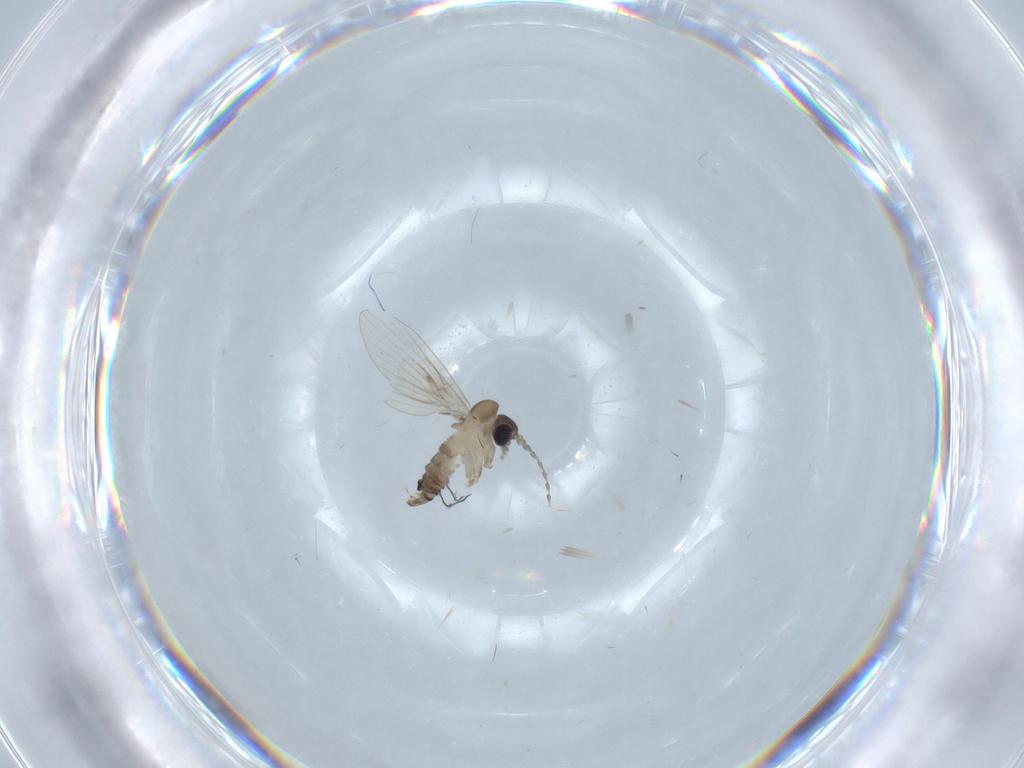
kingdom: Animalia
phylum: Arthropoda
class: Insecta
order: Diptera
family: Psychodidae
